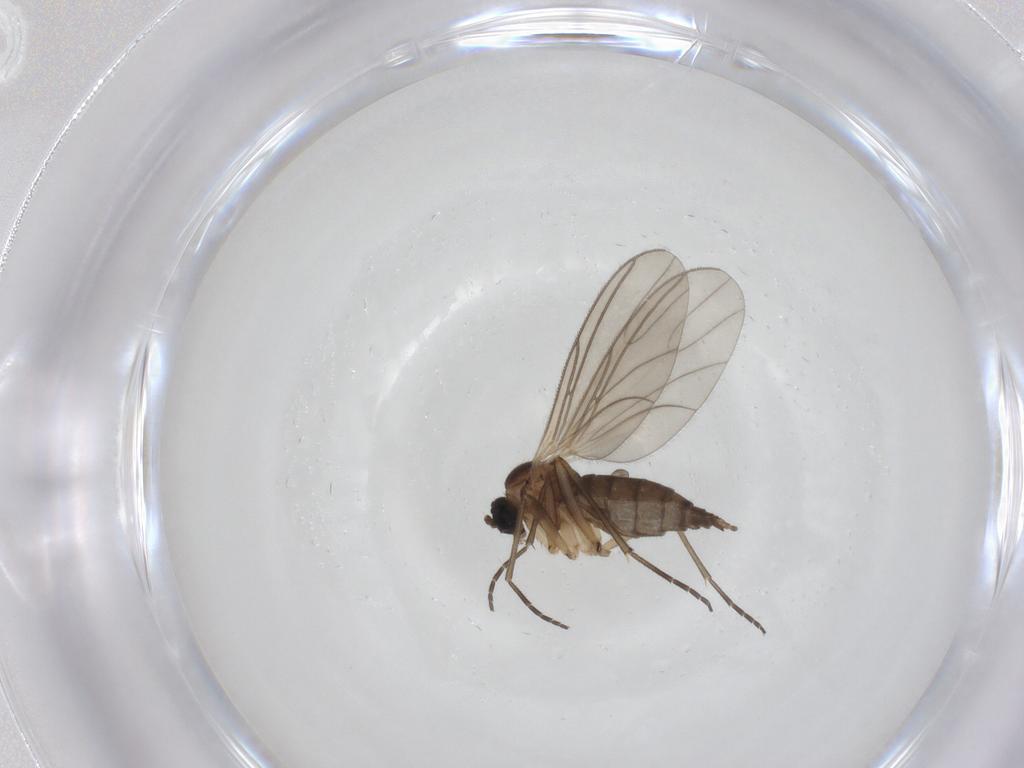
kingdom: Animalia
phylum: Arthropoda
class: Insecta
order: Diptera
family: Sciaridae
